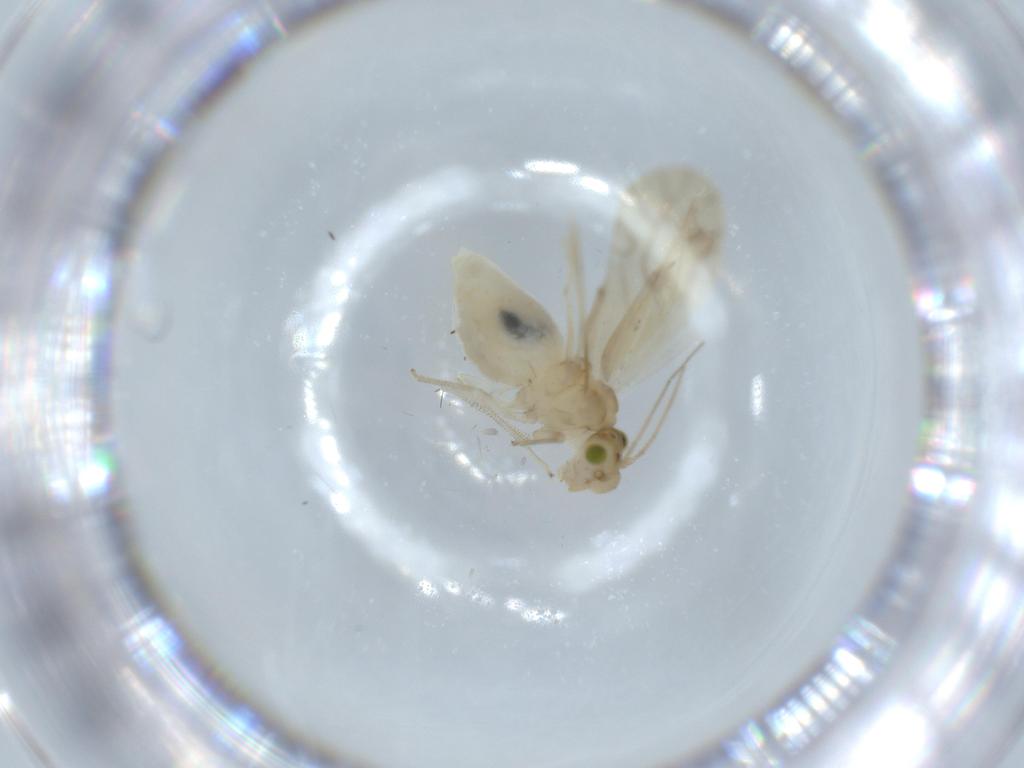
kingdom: Animalia
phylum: Arthropoda
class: Insecta
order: Psocodea
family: Caeciliusidae
